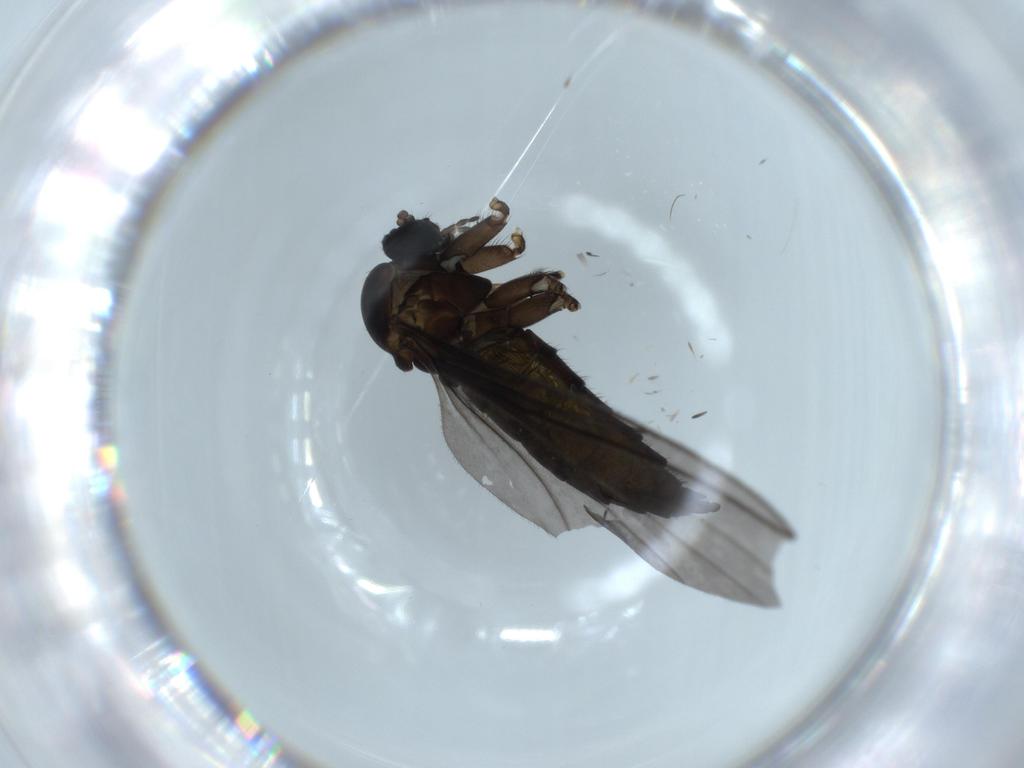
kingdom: Animalia
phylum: Arthropoda
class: Insecta
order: Diptera
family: Sciaridae
